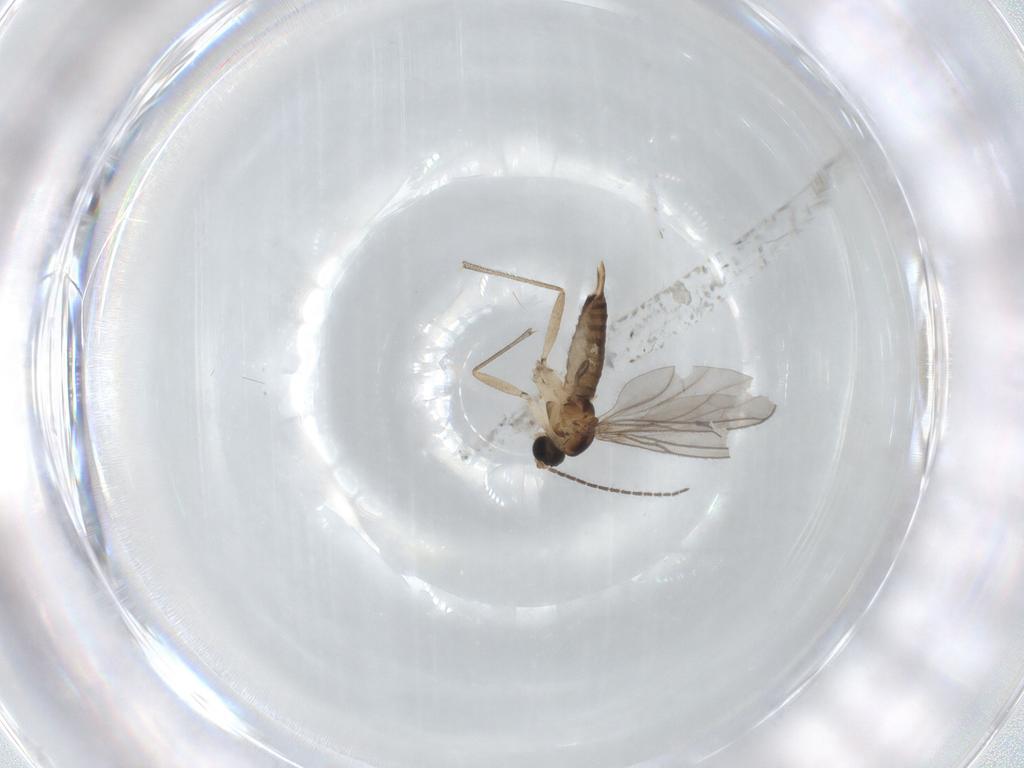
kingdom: Animalia
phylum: Arthropoda
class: Insecta
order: Diptera
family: Sciaridae
